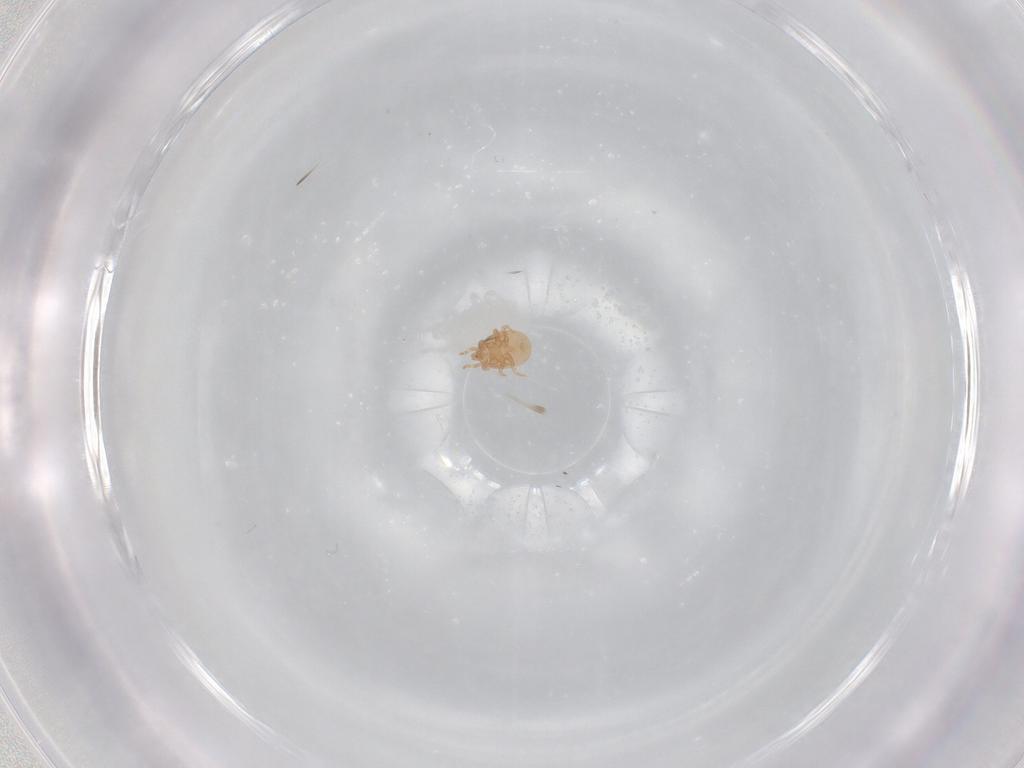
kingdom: Animalia
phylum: Arthropoda
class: Arachnida
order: Trombidiformes
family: Anystidae
